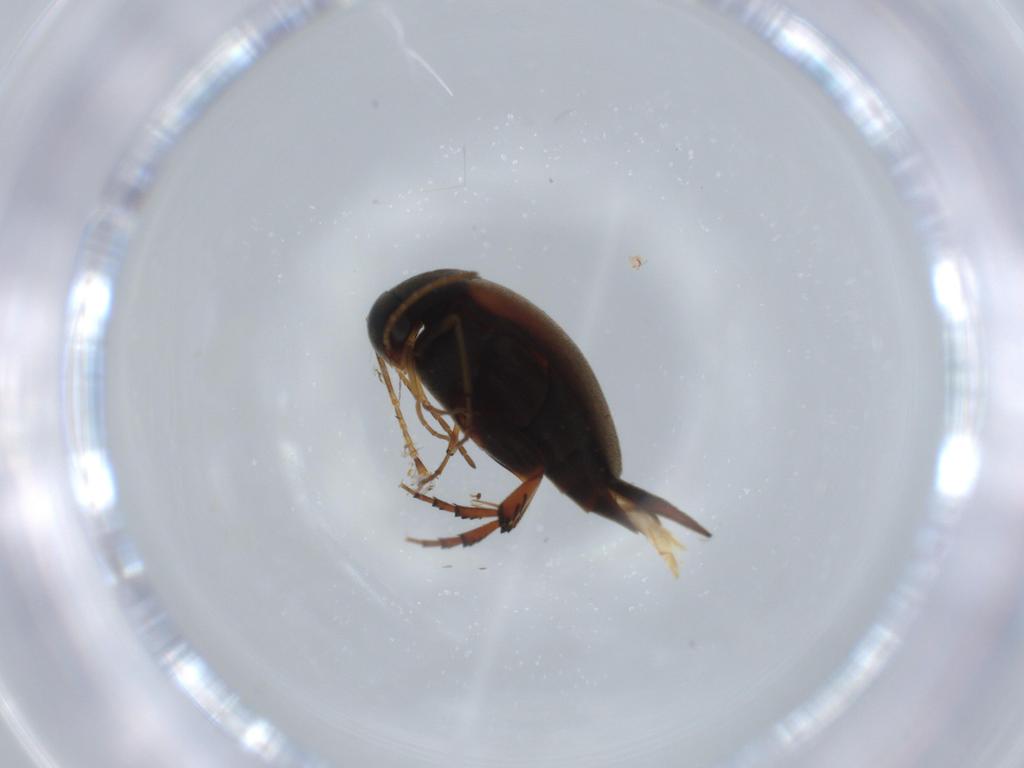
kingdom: Animalia
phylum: Arthropoda
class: Insecta
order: Coleoptera
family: Mordellidae
